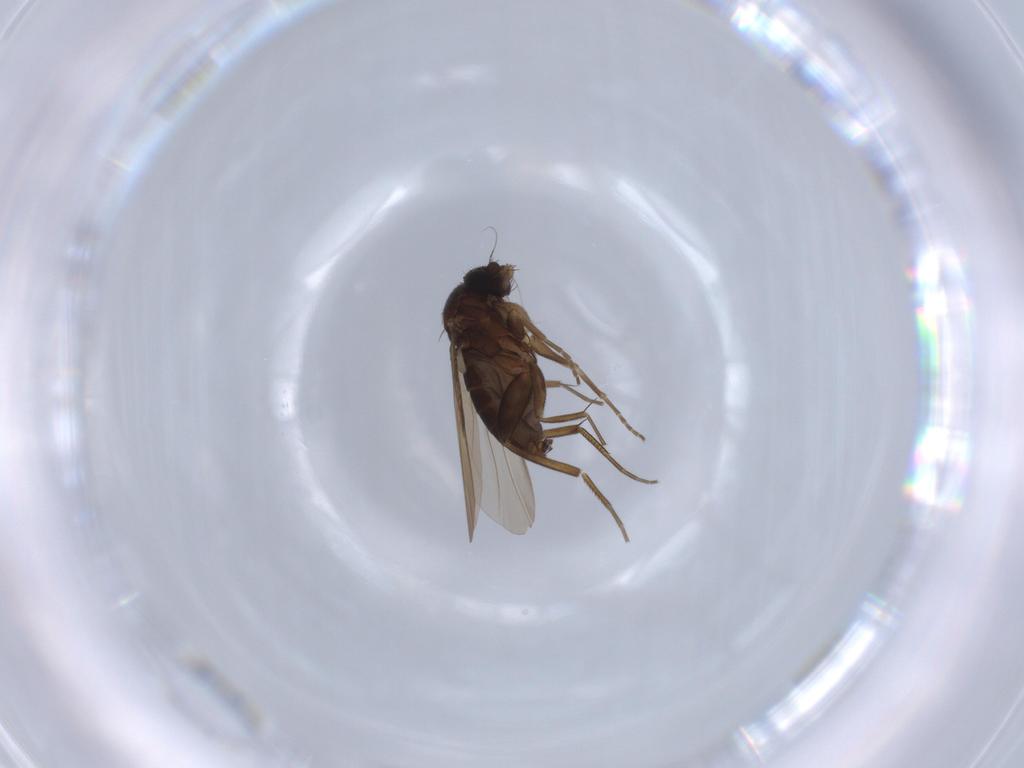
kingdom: Animalia
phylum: Arthropoda
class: Insecta
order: Diptera
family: Phoridae
